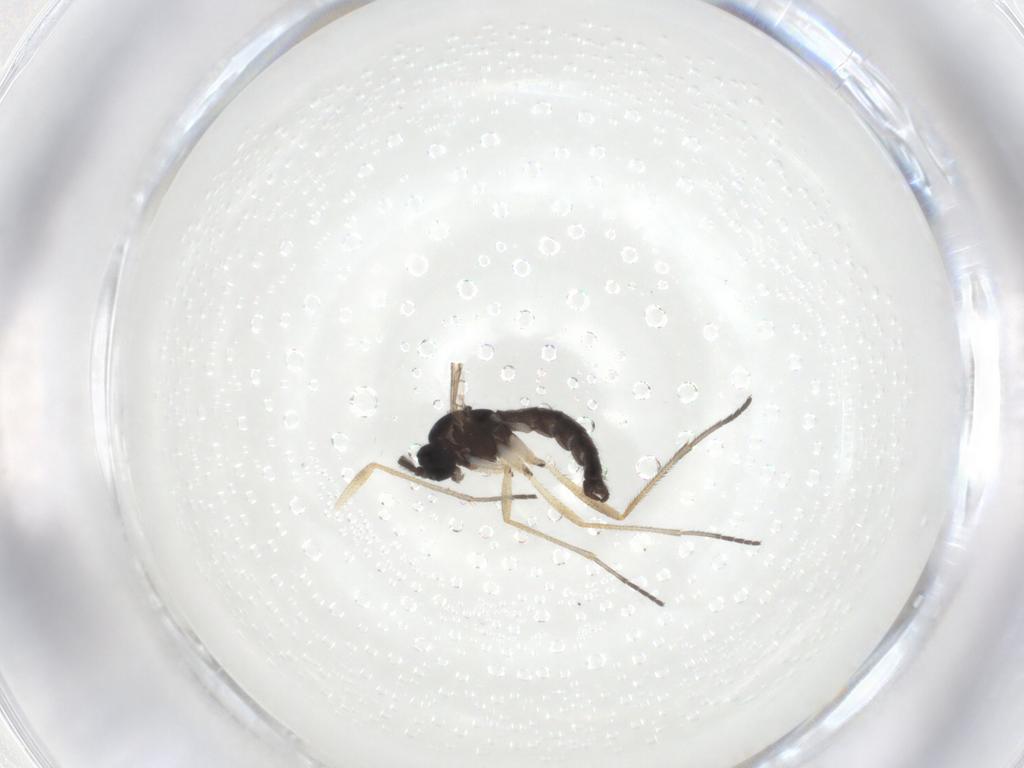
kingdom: Animalia
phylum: Arthropoda
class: Insecta
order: Diptera
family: Sciaridae
